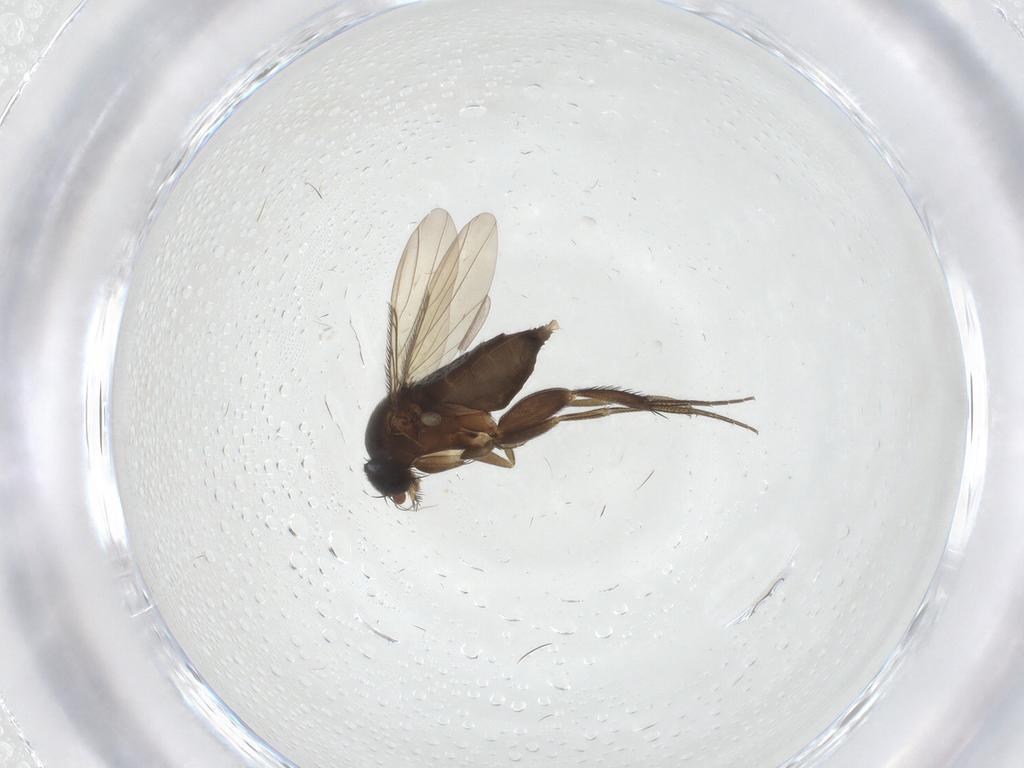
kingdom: Animalia
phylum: Arthropoda
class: Insecta
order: Diptera
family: Phoridae
